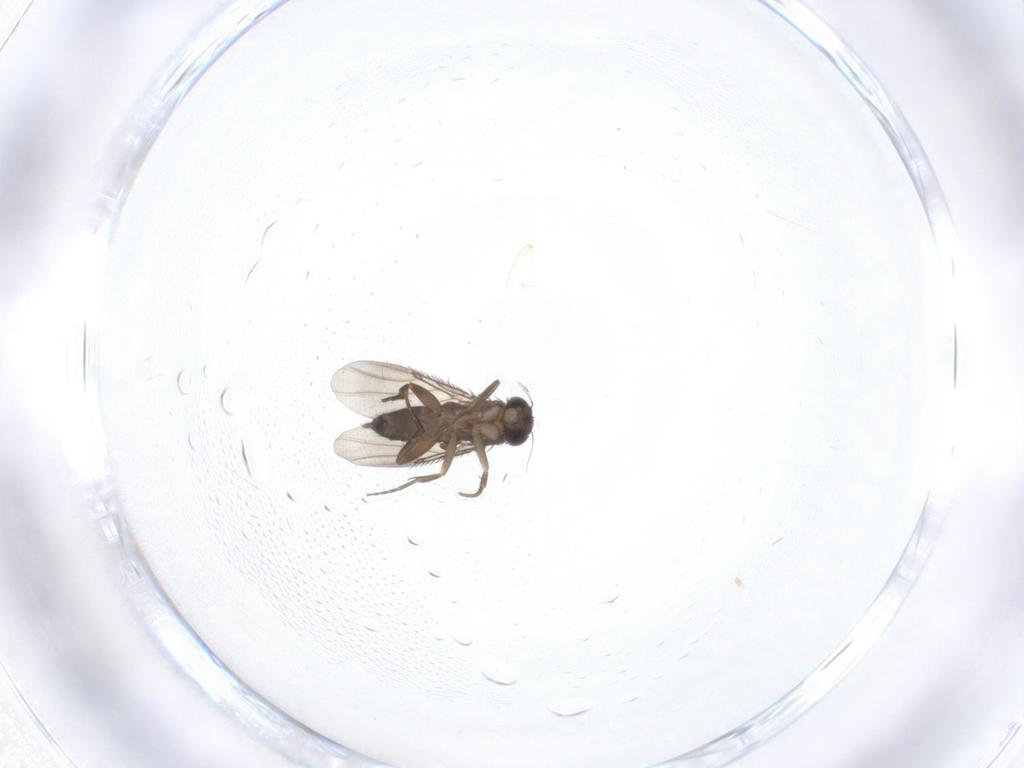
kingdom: Animalia
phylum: Arthropoda
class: Insecta
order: Diptera
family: Phoridae
